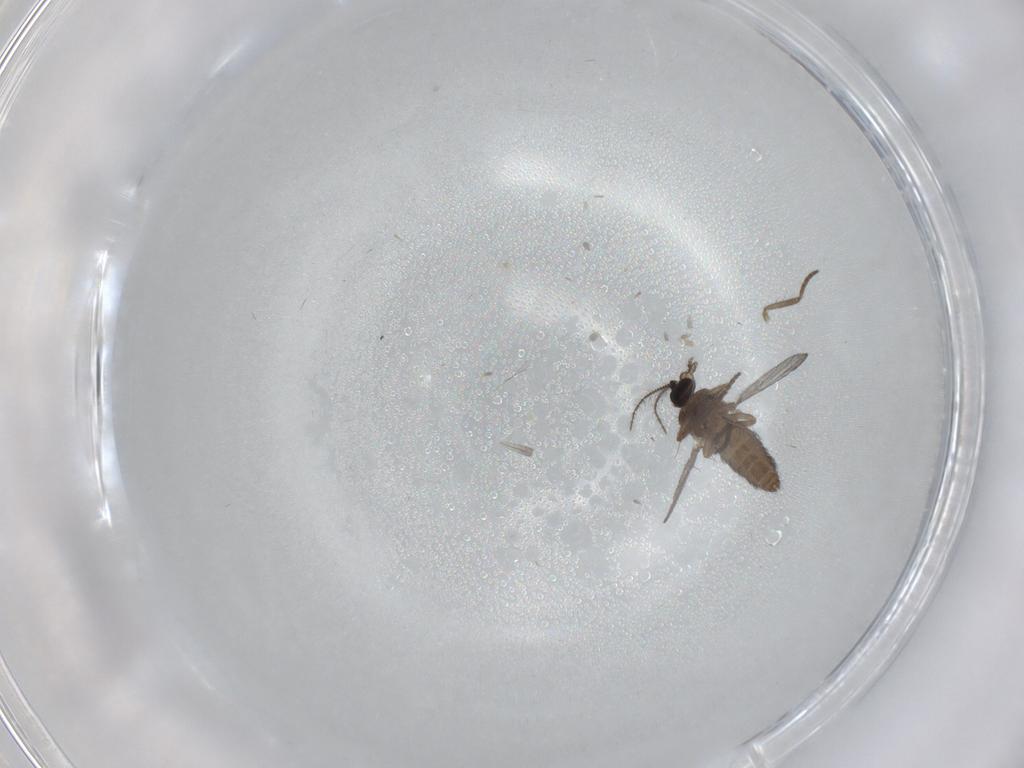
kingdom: Animalia
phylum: Arthropoda
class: Insecta
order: Diptera
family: Ceratopogonidae
